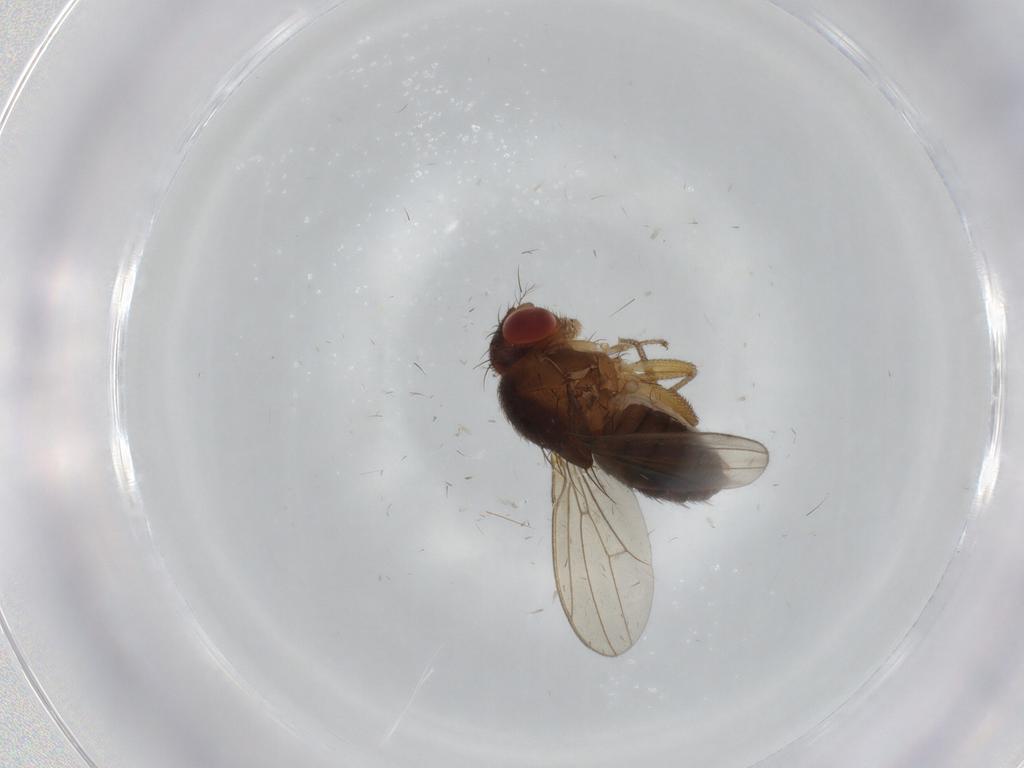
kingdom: Animalia
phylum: Arthropoda
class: Insecta
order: Diptera
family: Drosophilidae
